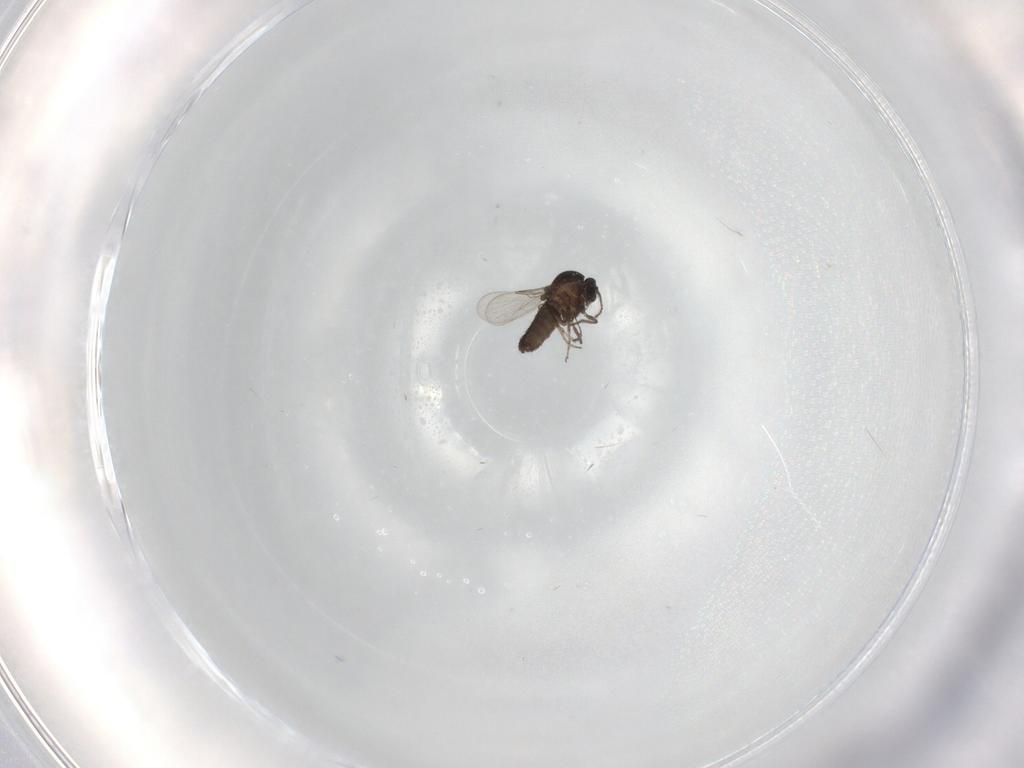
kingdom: Animalia
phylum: Arthropoda
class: Insecta
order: Diptera
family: Ceratopogonidae
